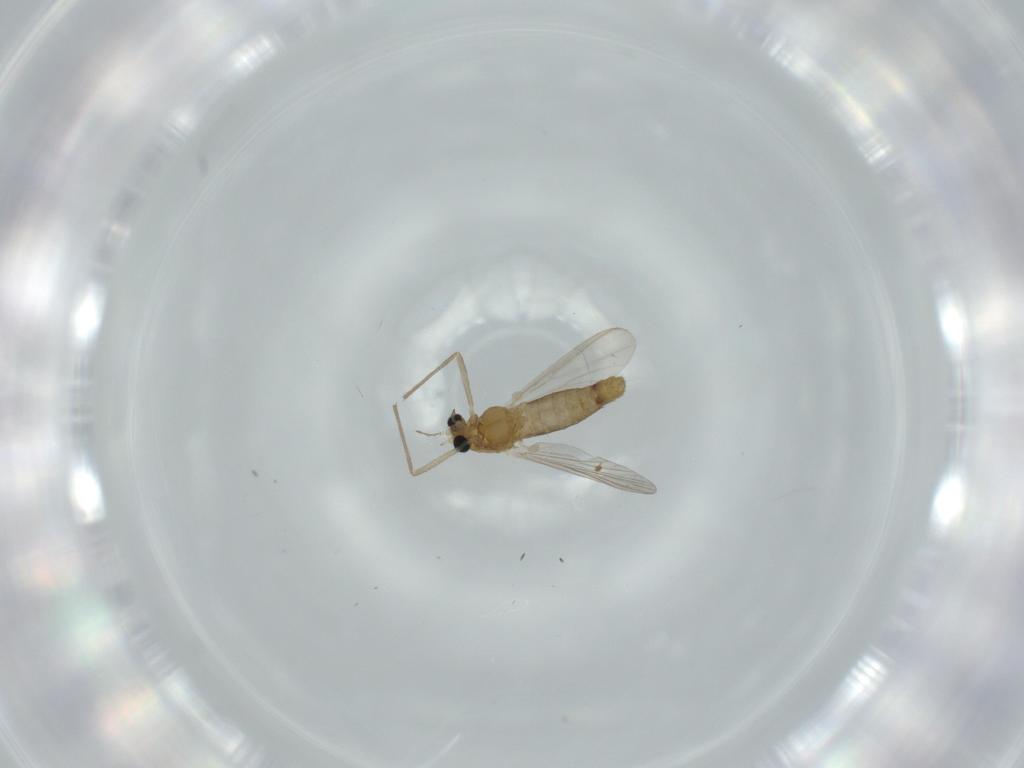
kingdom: Animalia
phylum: Arthropoda
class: Insecta
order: Diptera
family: Chironomidae
